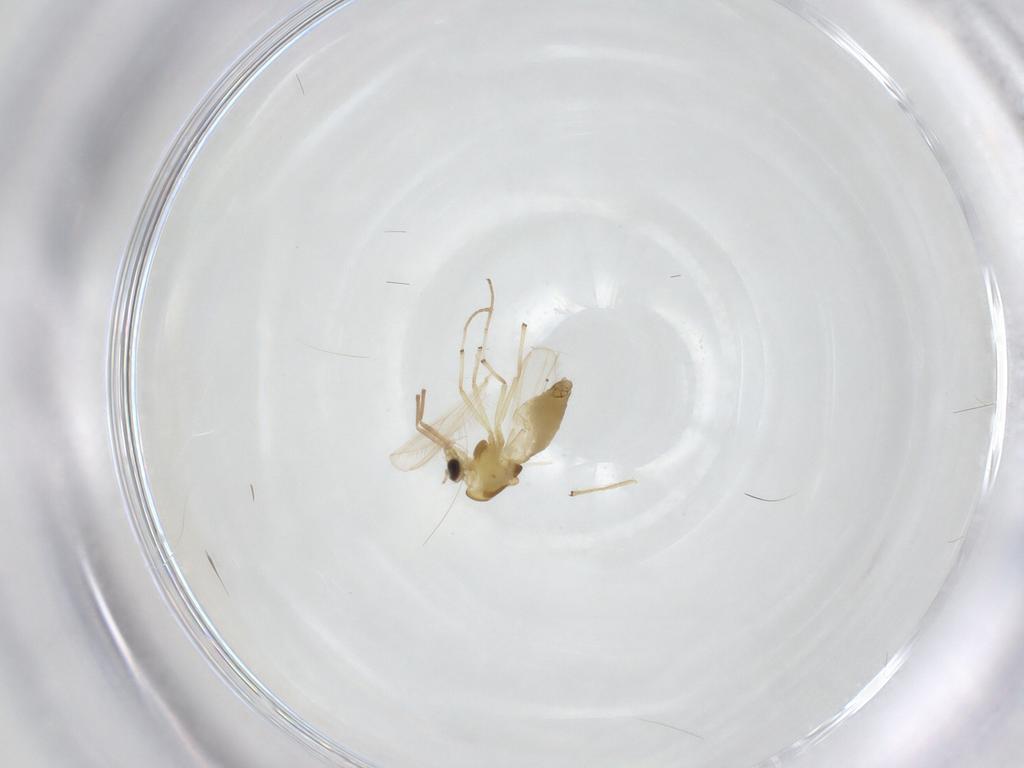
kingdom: Animalia
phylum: Arthropoda
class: Insecta
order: Diptera
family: Chironomidae
